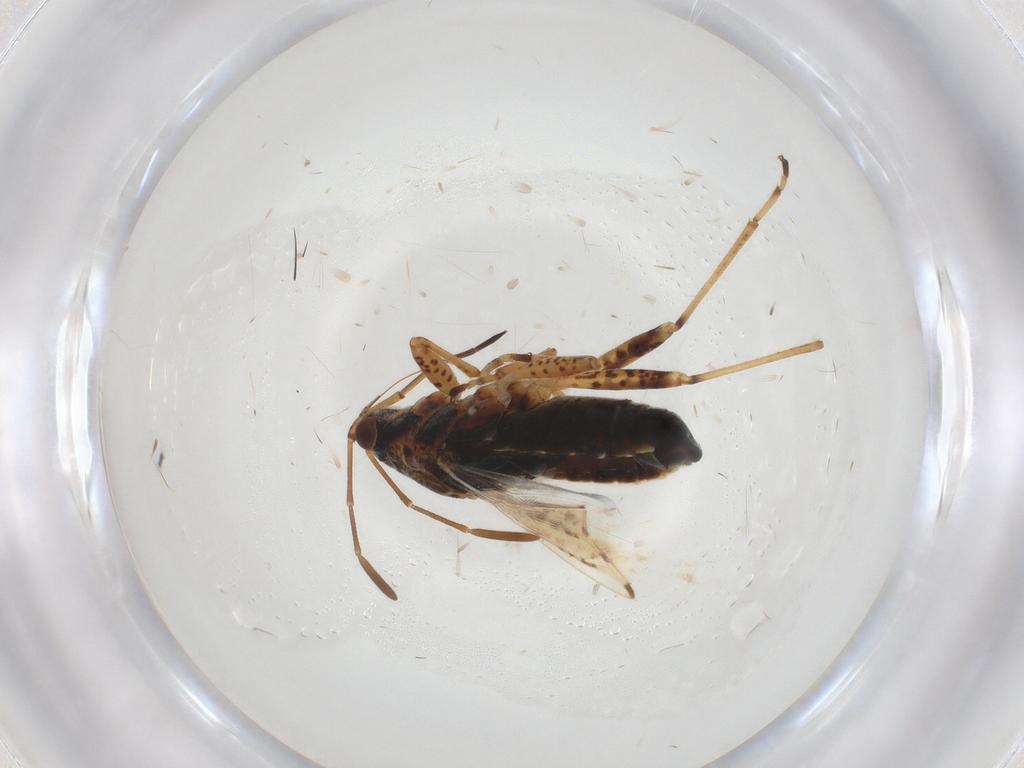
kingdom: Animalia
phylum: Arthropoda
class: Insecta
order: Hemiptera
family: Lygaeidae
